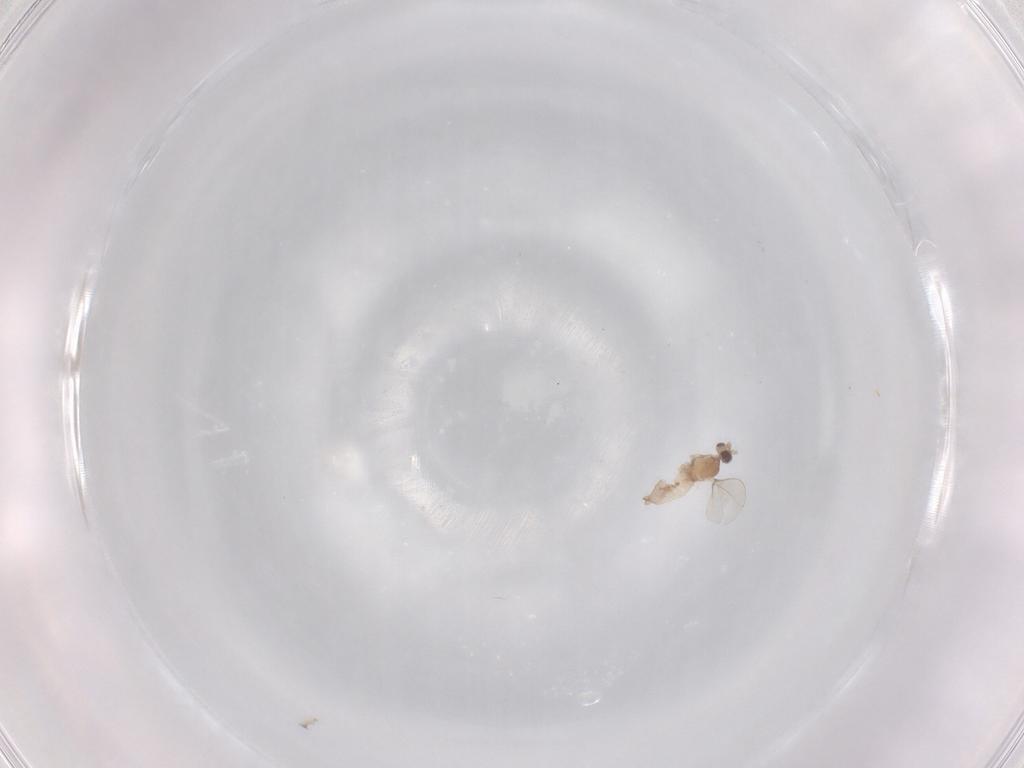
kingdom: Animalia
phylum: Arthropoda
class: Insecta
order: Diptera
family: Cecidomyiidae
